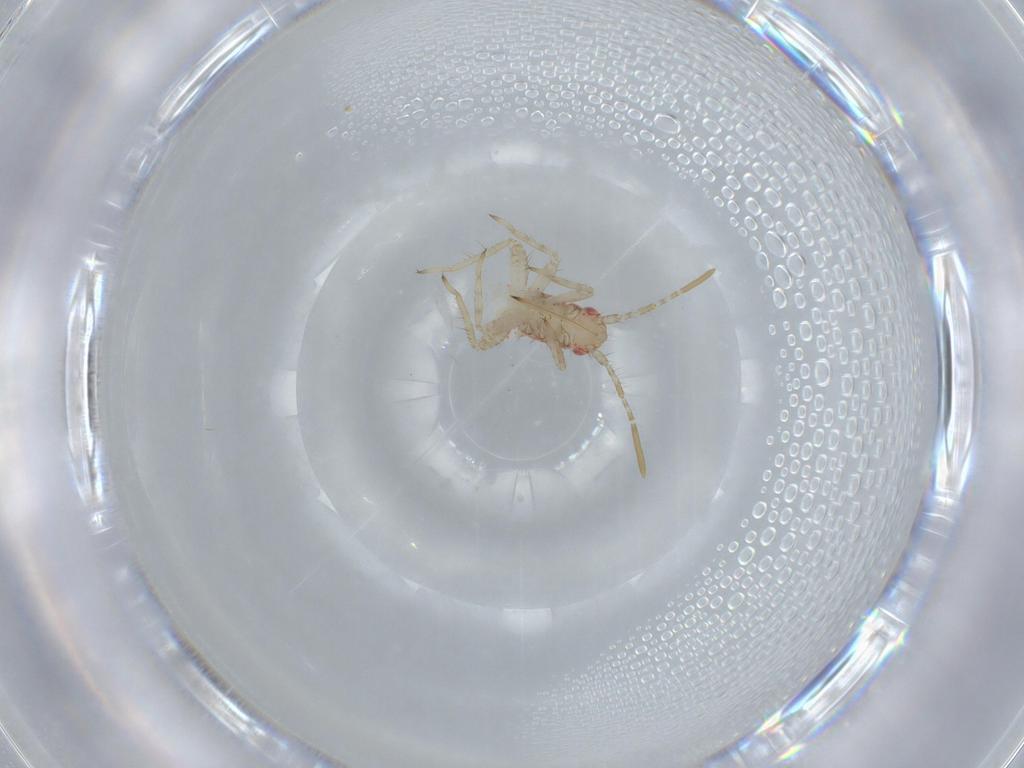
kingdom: Animalia
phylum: Arthropoda
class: Insecta
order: Hemiptera
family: Miridae
